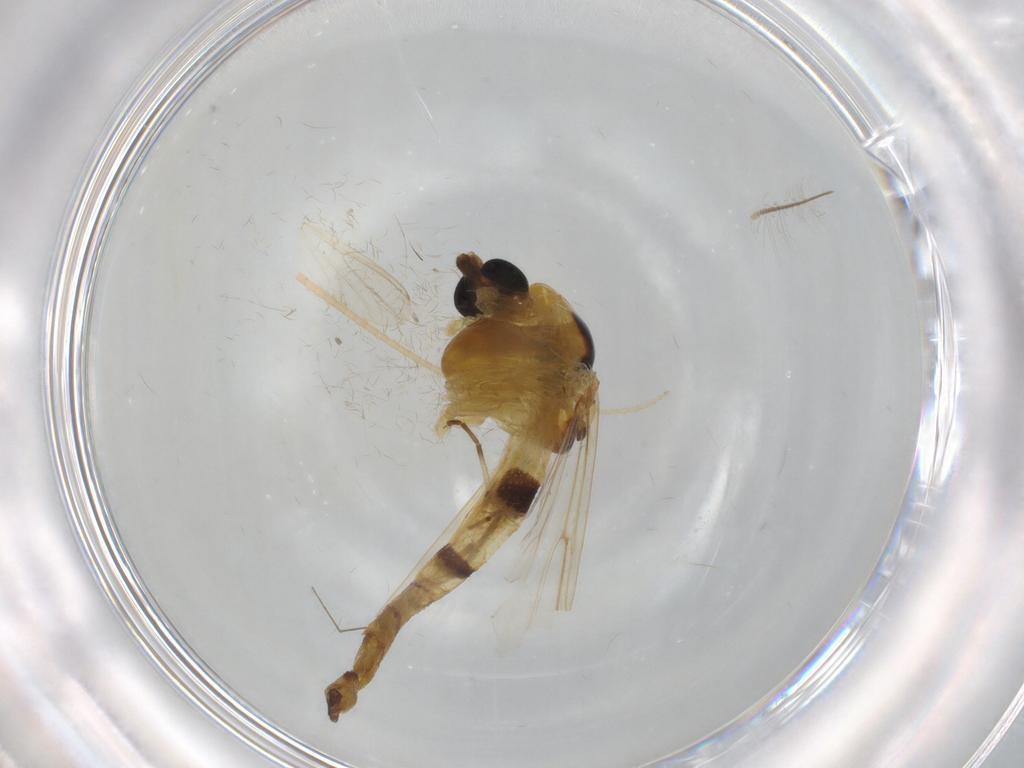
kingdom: Animalia
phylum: Arthropoda
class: Insecta
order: Diptera
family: Chironomidae
